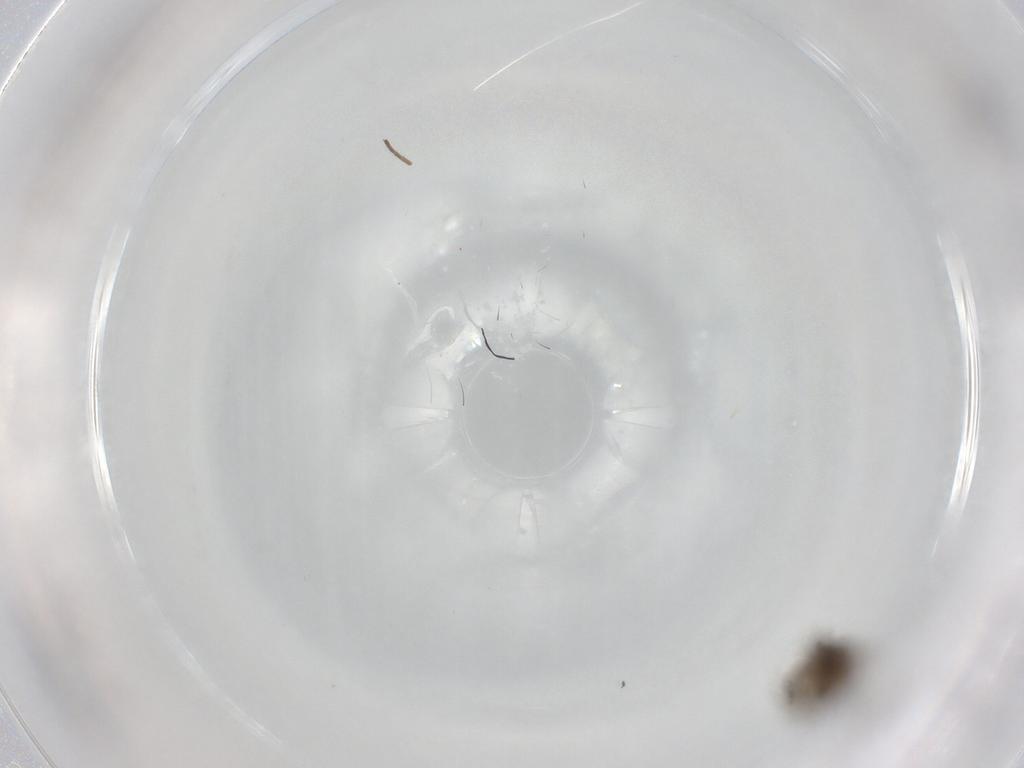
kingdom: Animalia
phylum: Arthropoda
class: Insecta
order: Diptera
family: Agromyzidae
